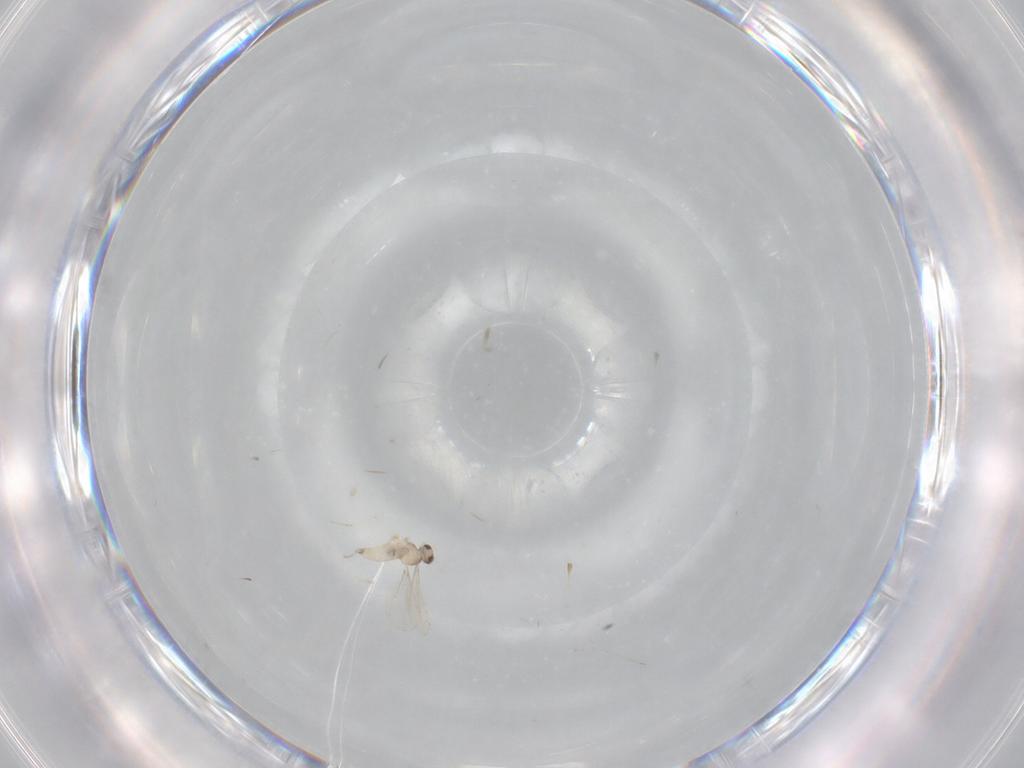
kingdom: Animalia
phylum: Arthropoda
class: Insecta
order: Diptera
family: Cecidomyiidae
